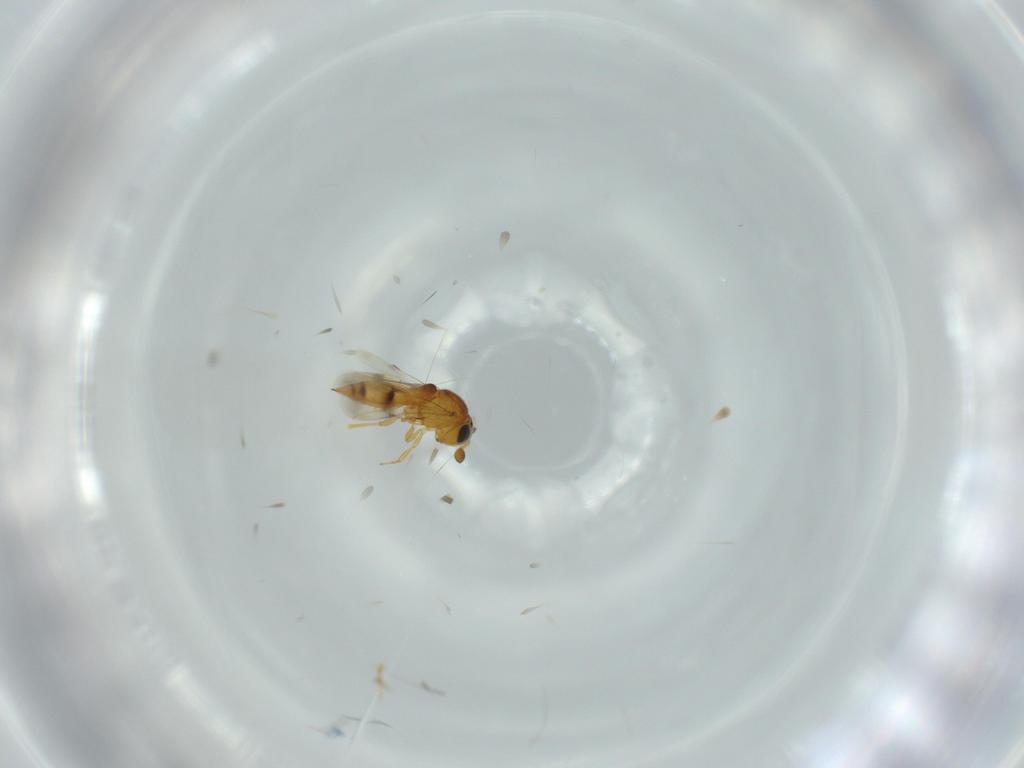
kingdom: Animalia
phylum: Arthropoda
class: Insecta
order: Hymenoptera
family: Scelionidae
